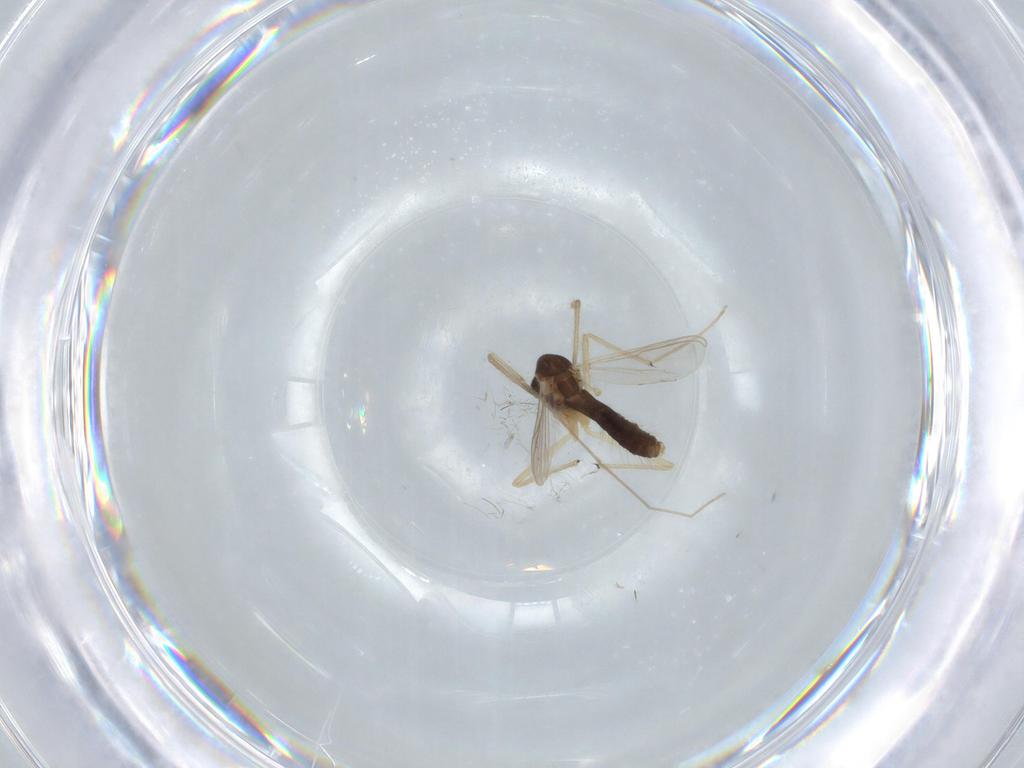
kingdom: Animalia
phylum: Arthropoda
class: Insecta
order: Diptera
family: Chironomidae
